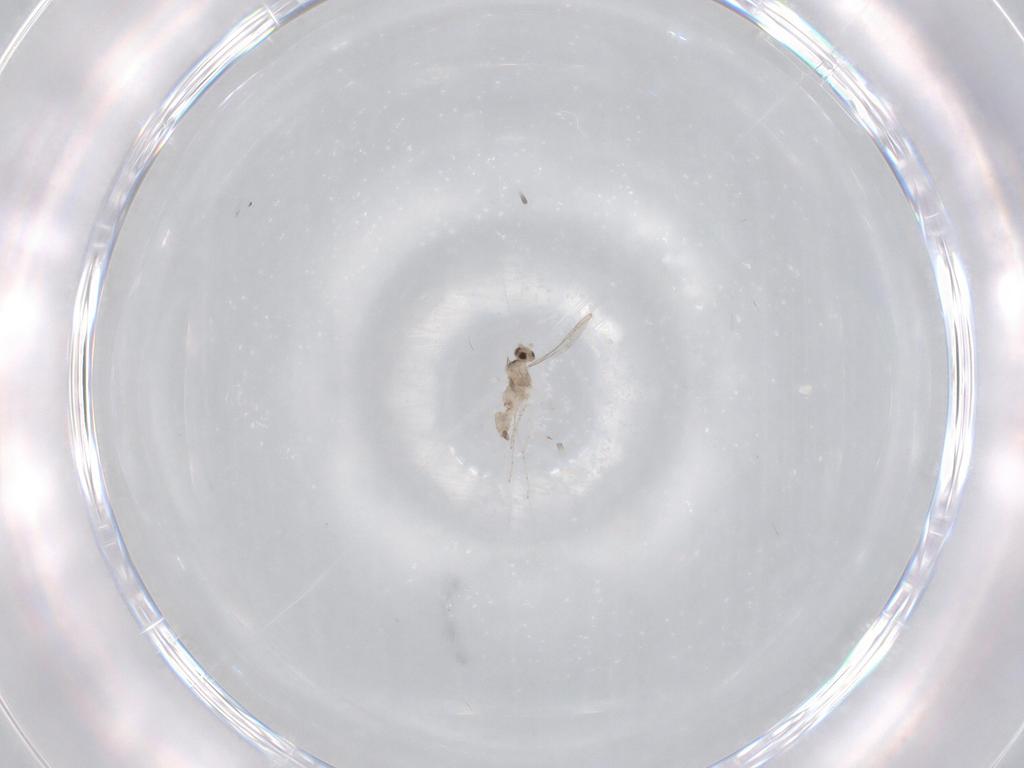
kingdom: Animalia
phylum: Arthropoda
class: Insecta
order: Diptera
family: Cecidomyiidae
